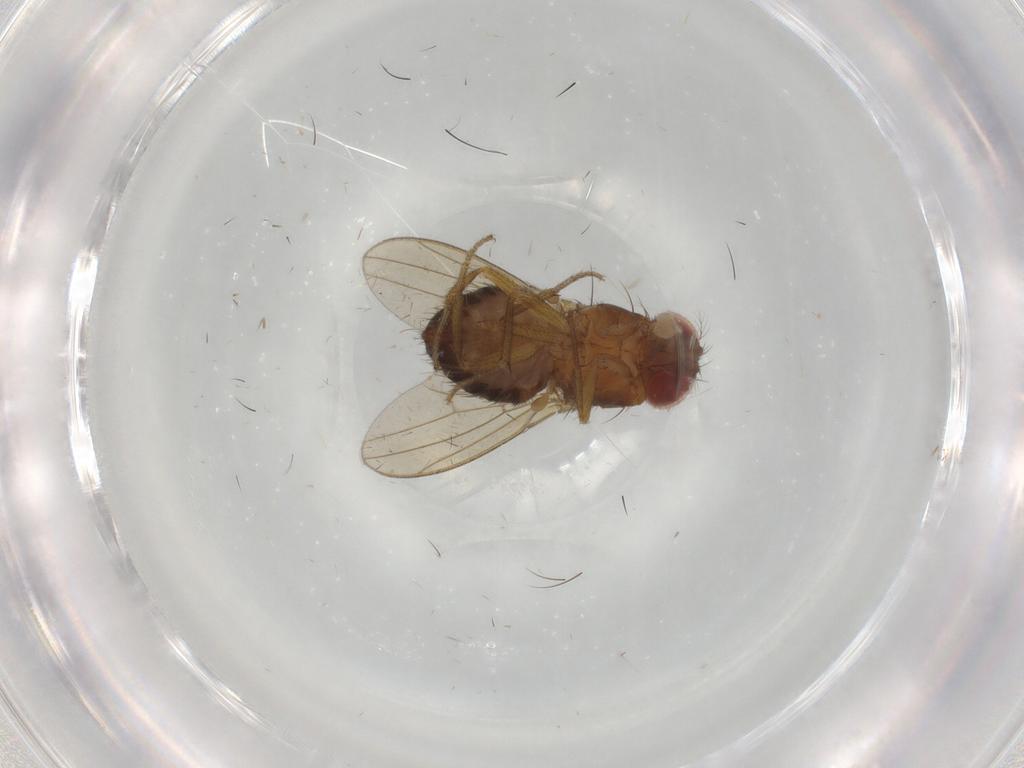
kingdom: Animalia
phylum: Arthropoda
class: Insecta
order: Diptera
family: Drosophilidae
